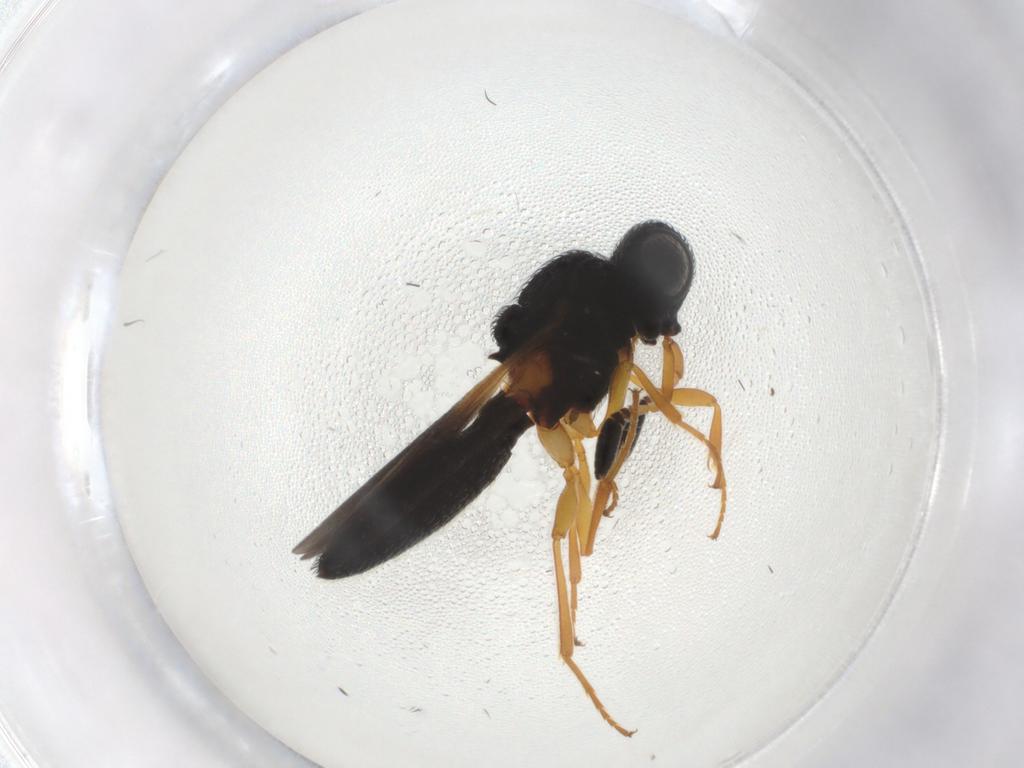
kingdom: Animalia
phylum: Arthropoda
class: Insecta
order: Hymenoptera
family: Scelionidae
